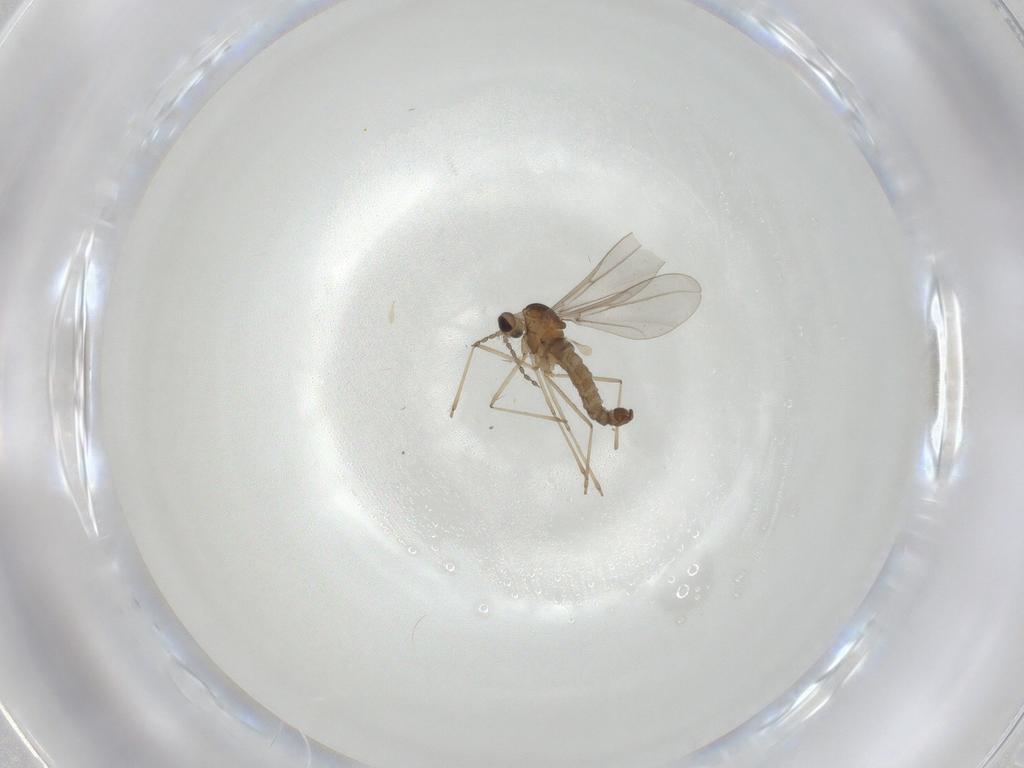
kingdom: Animalia
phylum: Arthropoda
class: Insecta
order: Diptera
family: Cecidomyiidae
